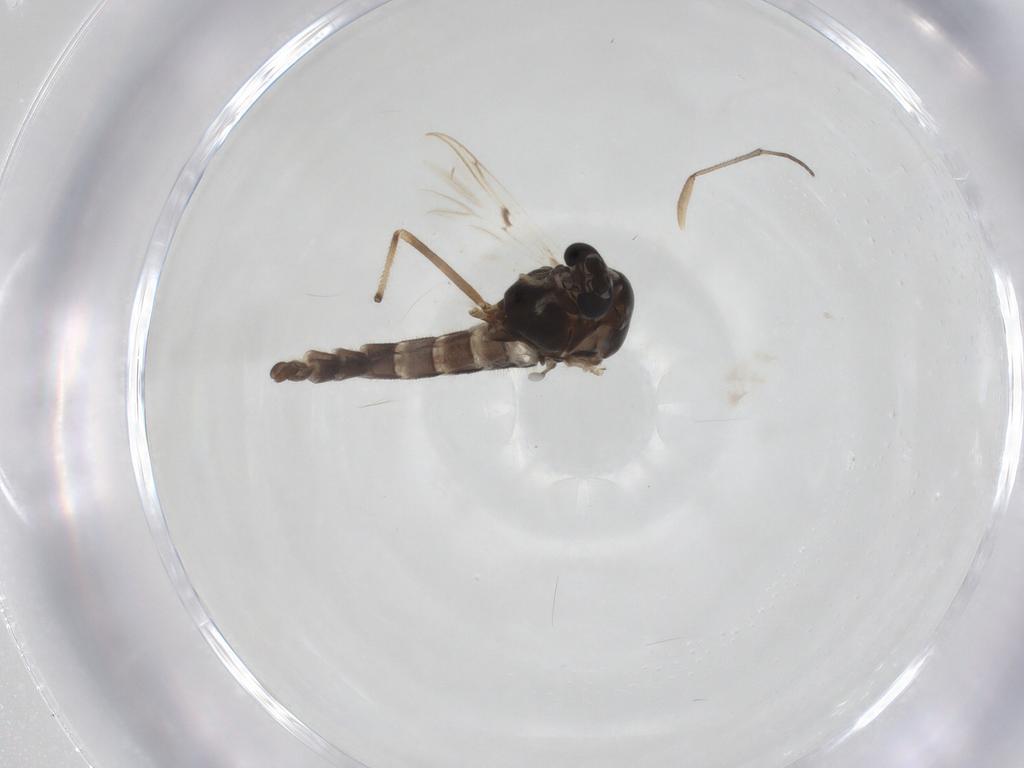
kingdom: Animalia
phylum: Arthropoda
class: Insecta
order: Diptera
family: Chironomidae
